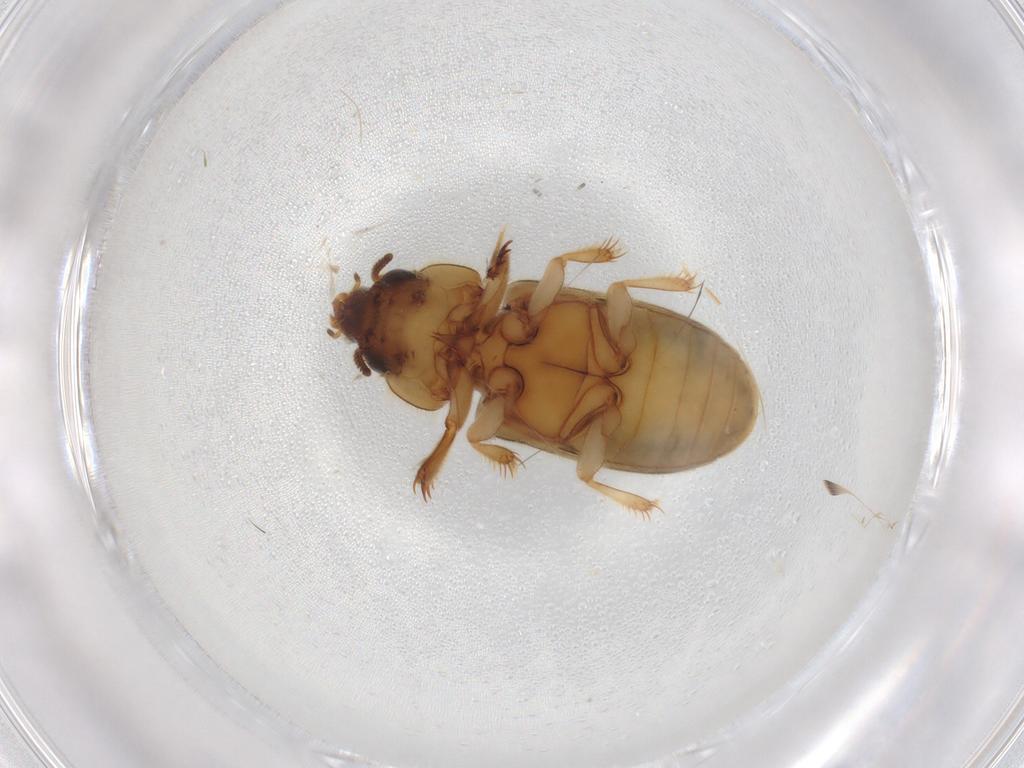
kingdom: Animalia
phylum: Arthropoda
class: Insecta
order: Coleoptera
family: Heteroceridae
